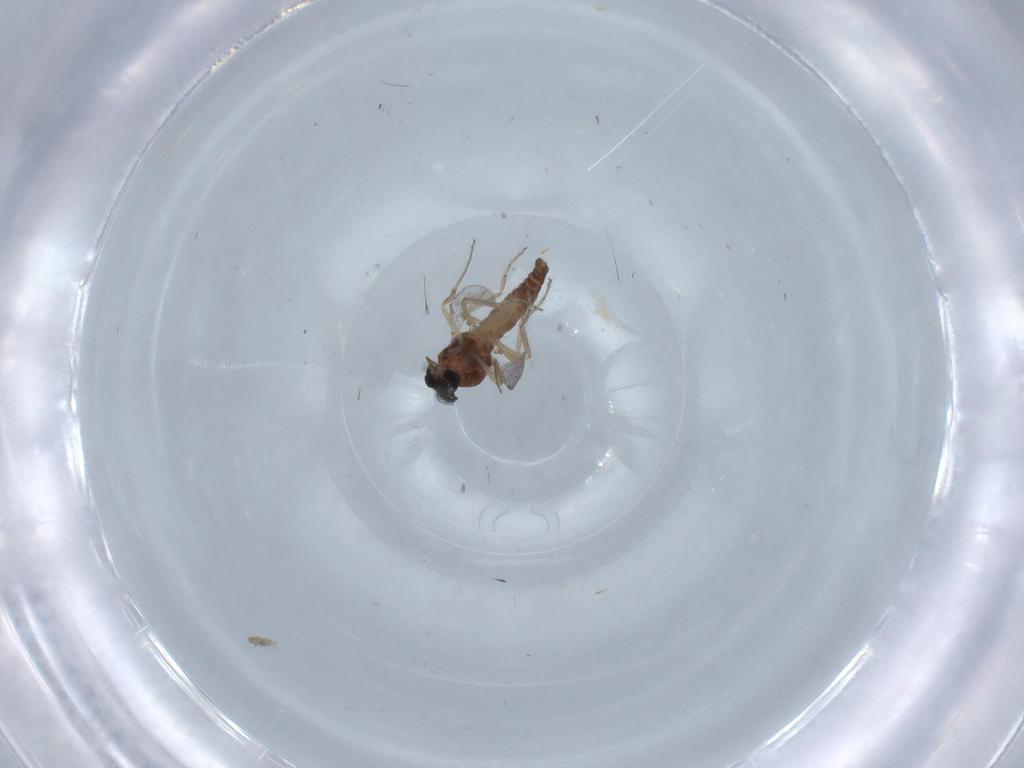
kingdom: Animalia
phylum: Arthropoda
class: Insecta
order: Diptera
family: Ceratopogonidae
